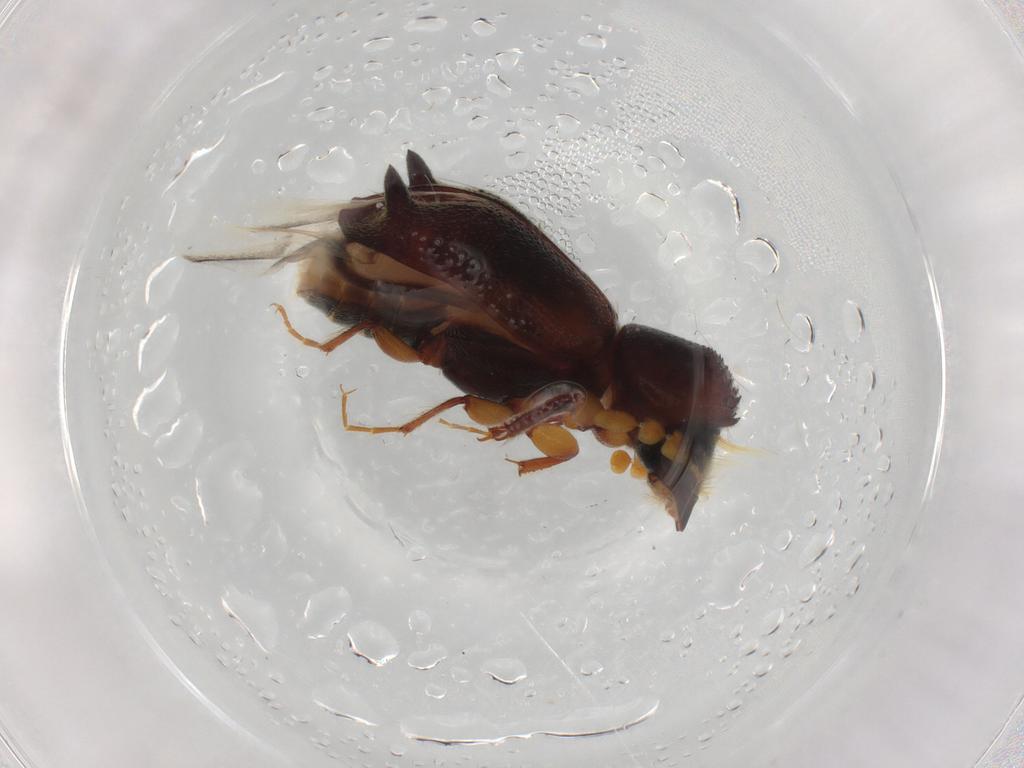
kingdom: Animalia
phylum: Arthropoda
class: Insecta
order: Coleoptera
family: Bostrichidae
